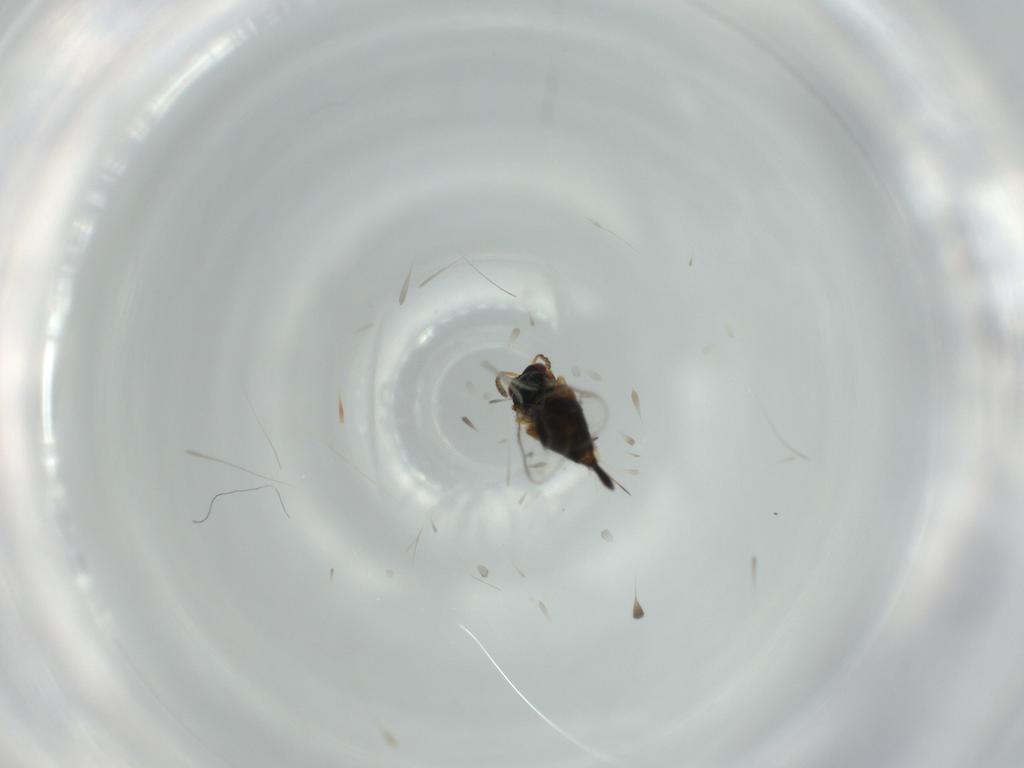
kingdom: Animalia
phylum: Arthropoda
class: Insecta
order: Hymenoptera
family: Torymidae
